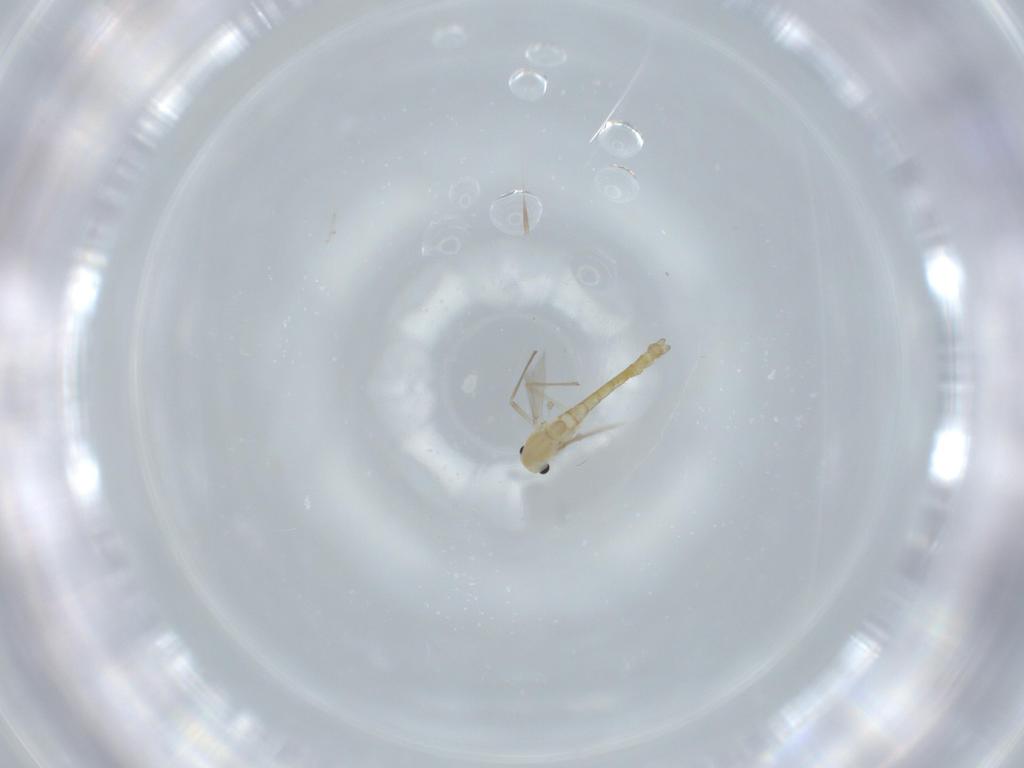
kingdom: Animalia
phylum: Arthropoda
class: Insecta
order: Diptera
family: Chironomidae
